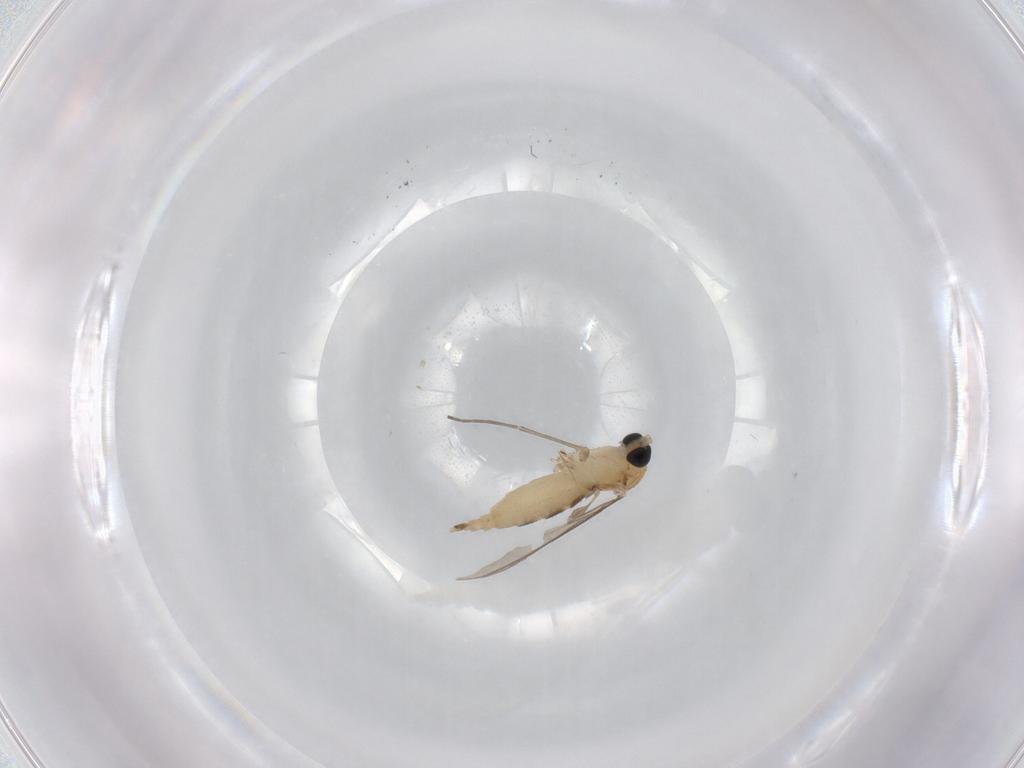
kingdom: Animalia
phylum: Arthropoda
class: Insecta
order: Diptera
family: Sciaridae
